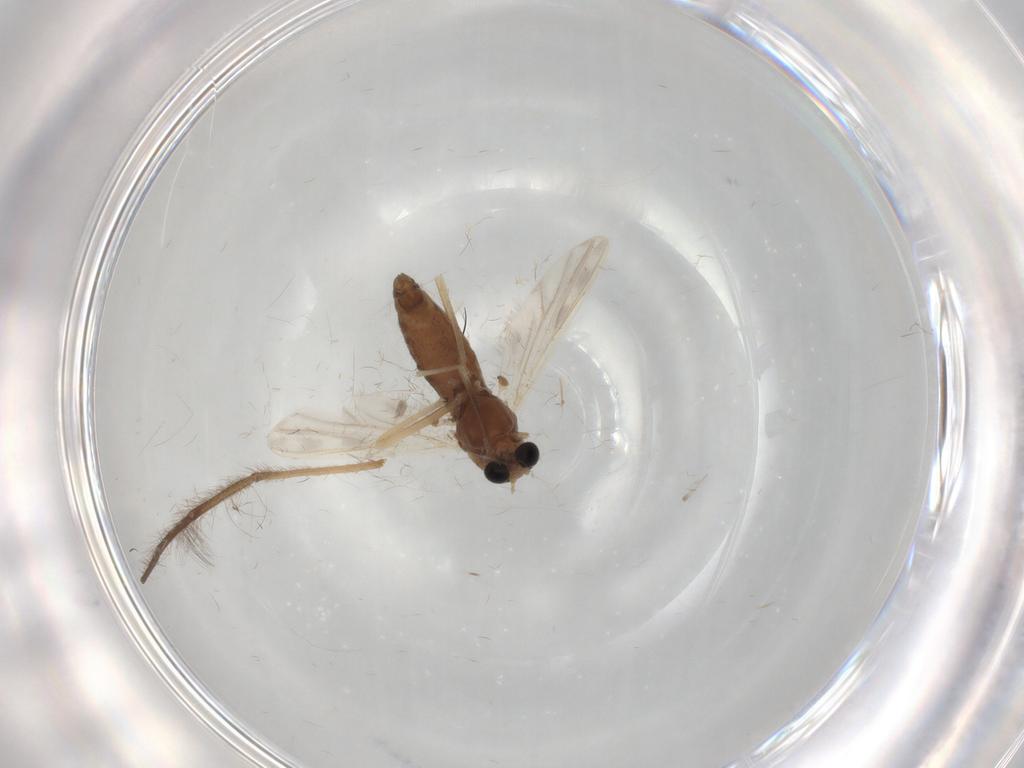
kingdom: Animalia
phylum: Arthropoda
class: Insecta
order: Diptera
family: Chironomidae
